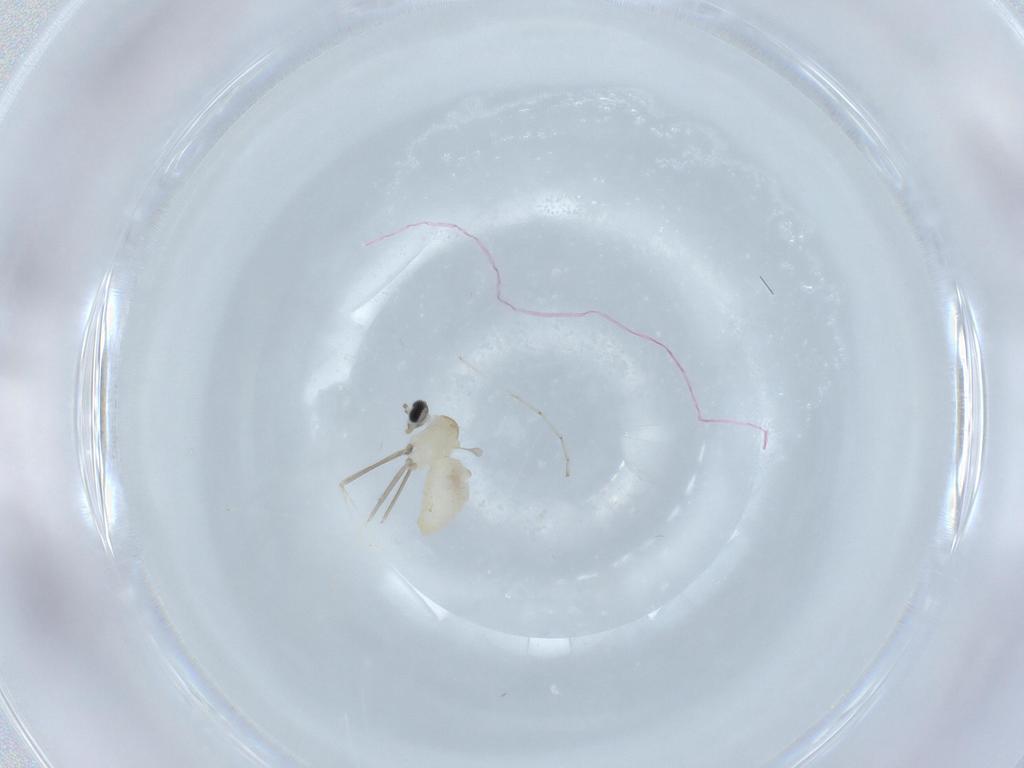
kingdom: Animalia
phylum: Arthropoda
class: Insecta
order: Diptera
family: Cecidomyiidae
